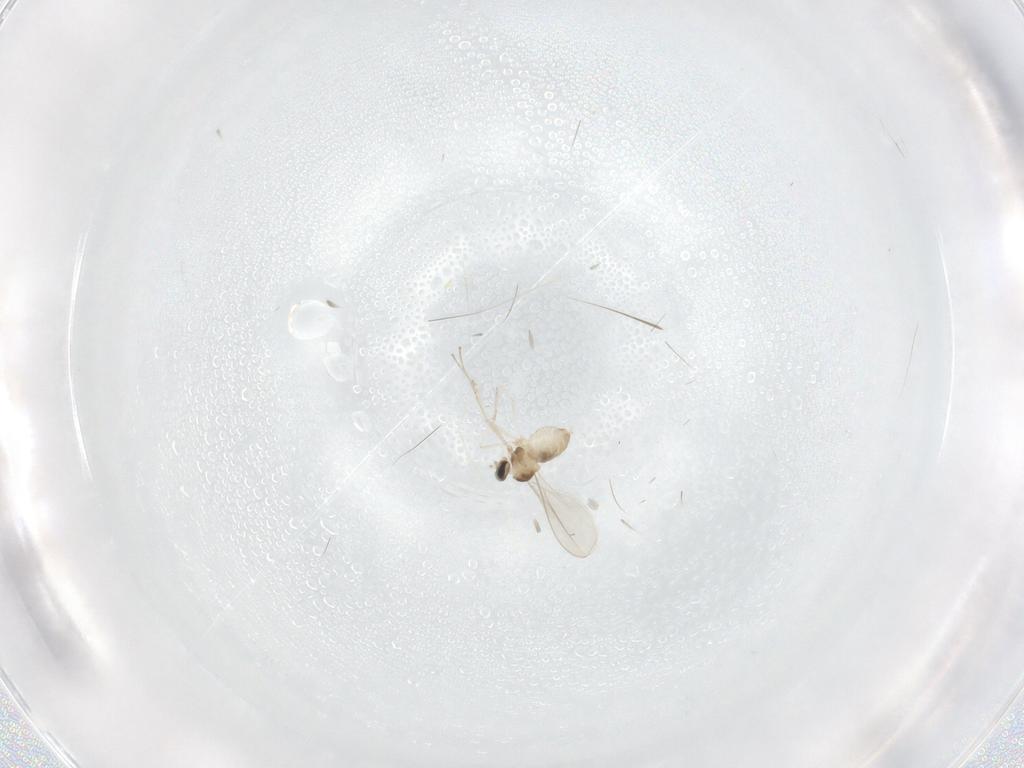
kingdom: Animalia
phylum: Arthropoda
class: Insecta
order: Diptera
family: Cecidomyiidae
